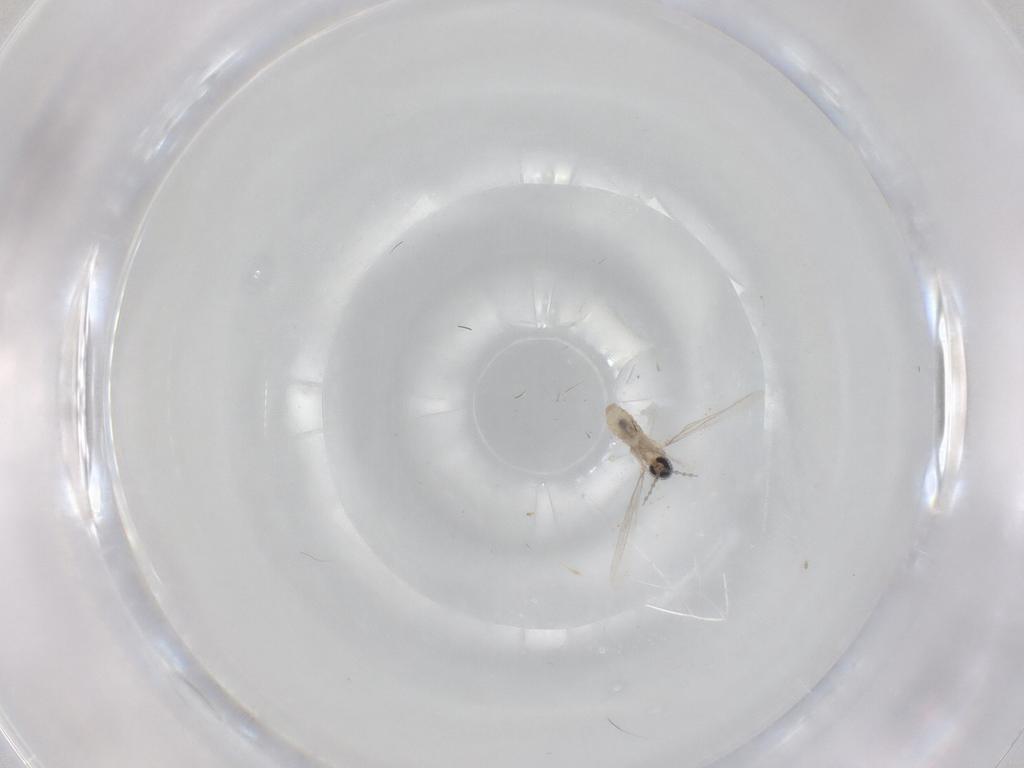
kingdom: Animalia
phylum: Arthropoda
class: Insecta
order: Diptera
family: Cecidomyiidae
